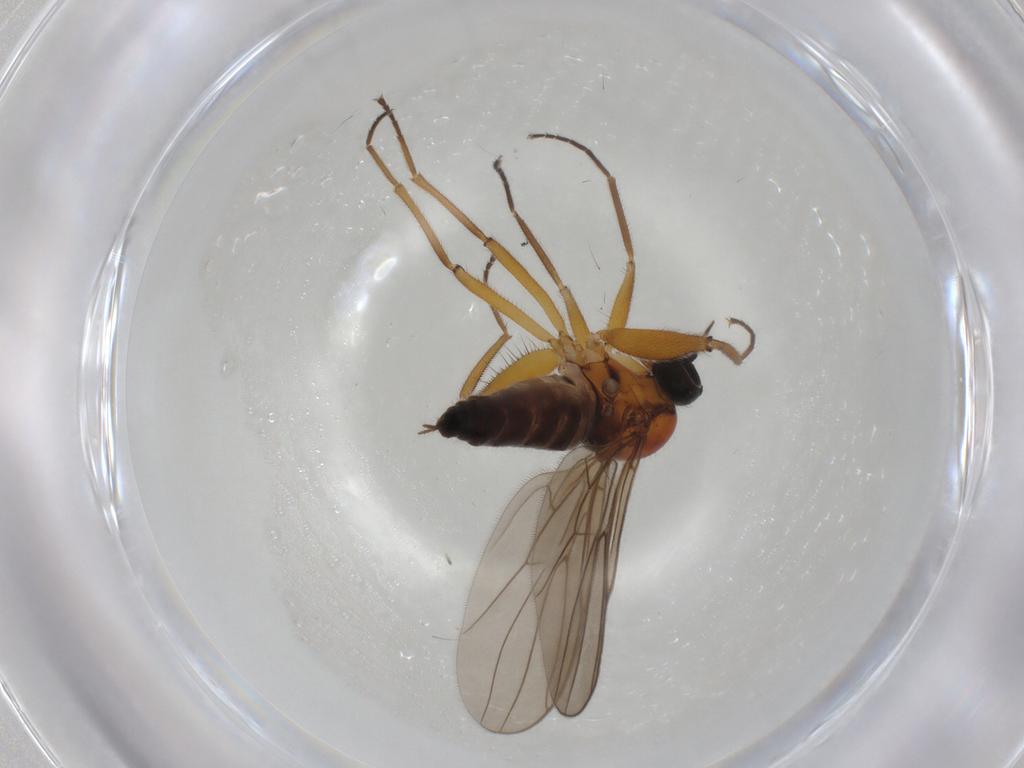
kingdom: Animalia
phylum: Arthropoda
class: Insecta
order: Diptera
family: Hybotidae
